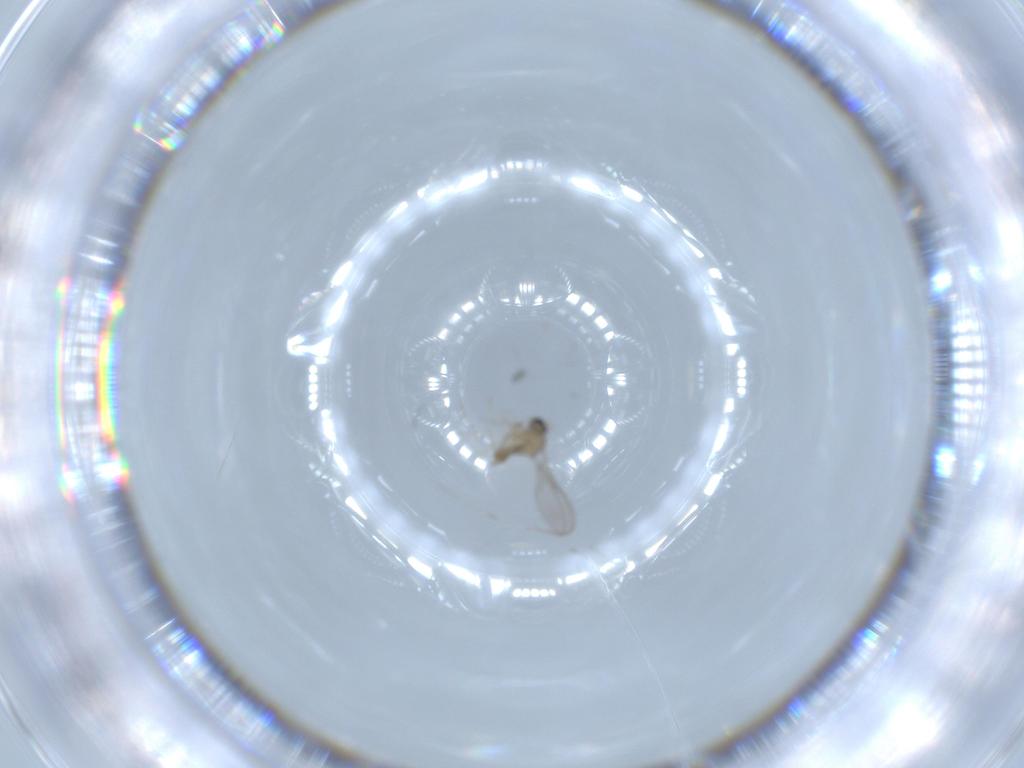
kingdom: Animalia
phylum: Arthropoda
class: Insecta
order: Diptera
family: Cecidomyiidae
